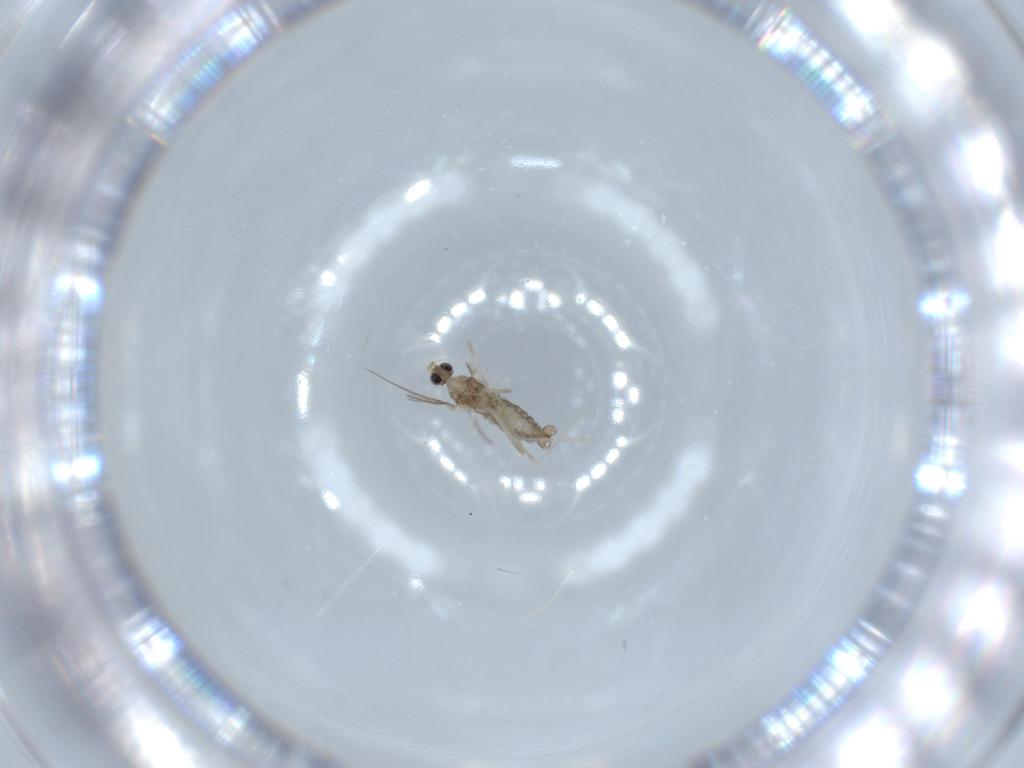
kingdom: Animalia
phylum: Arthropoda
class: Insecta
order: Diptera
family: Cecidomyiidae
